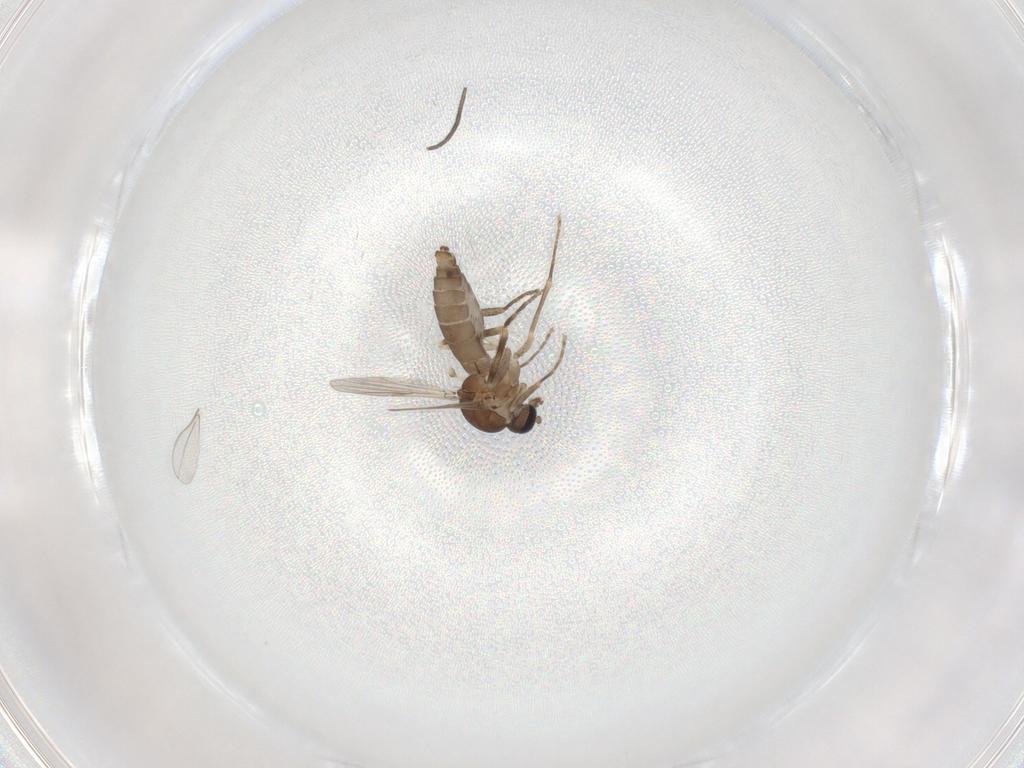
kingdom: Animalia
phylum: Arthropoda
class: Insecta
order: Diptera
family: Ceratopogonidae
